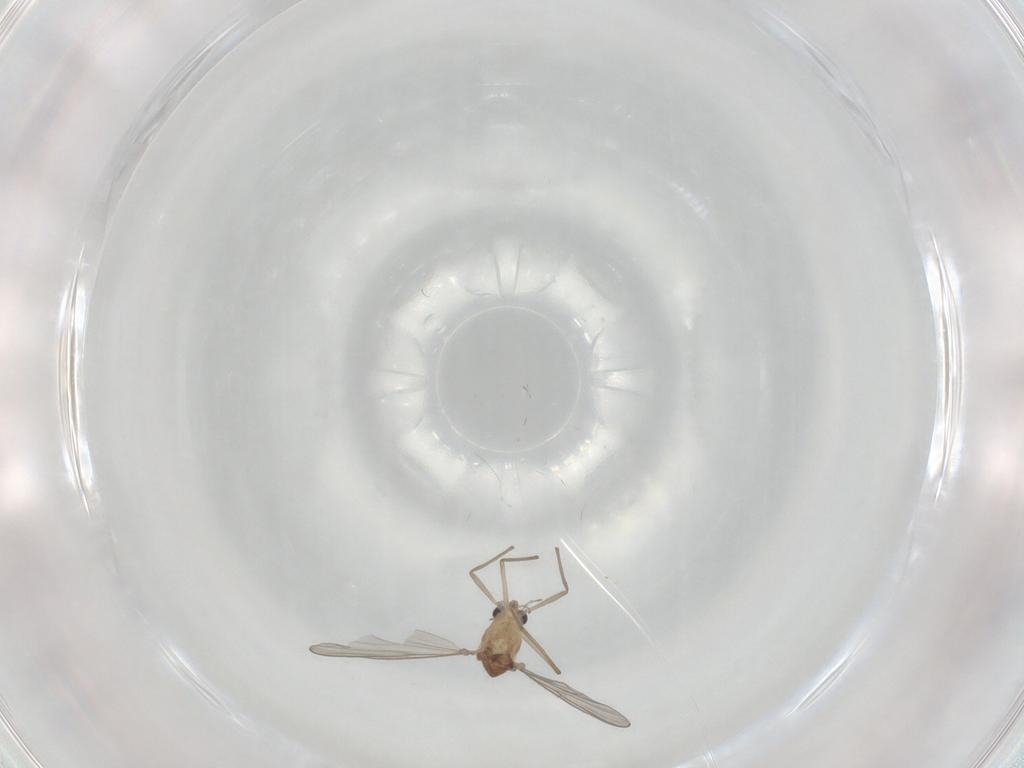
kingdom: Animalia
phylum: Arthropoda
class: Insecta
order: Diptera
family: Chironomidae
